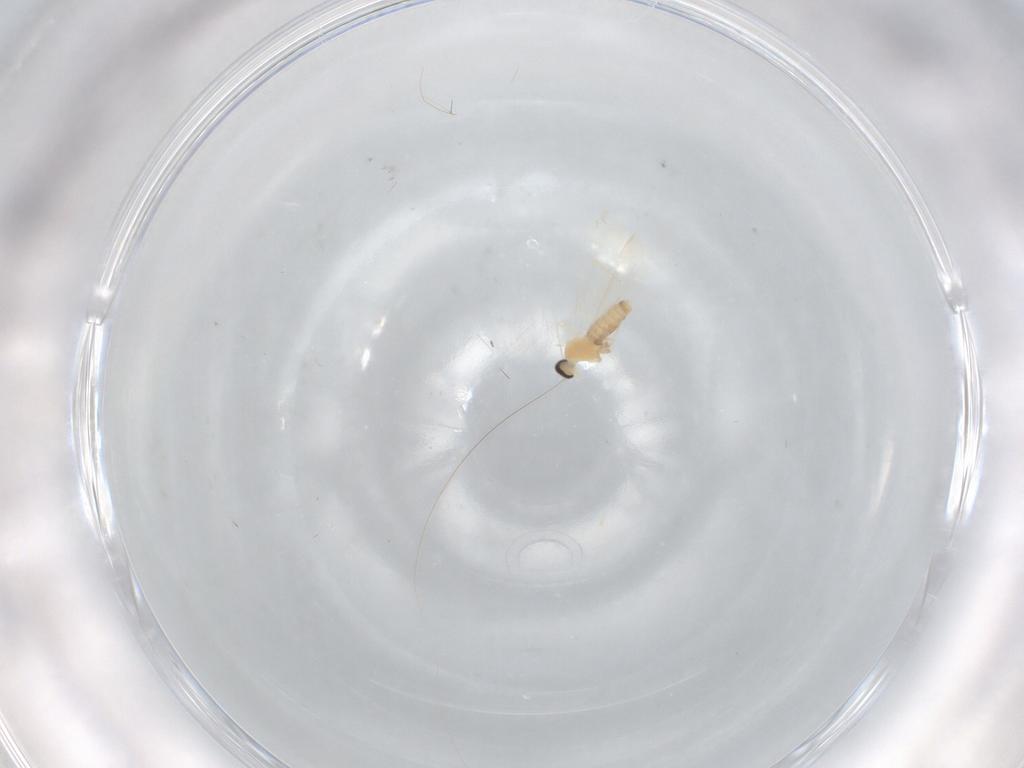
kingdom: Animalia
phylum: Arthropoda
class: Insecta
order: Diptera
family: Cecidomyiidae
